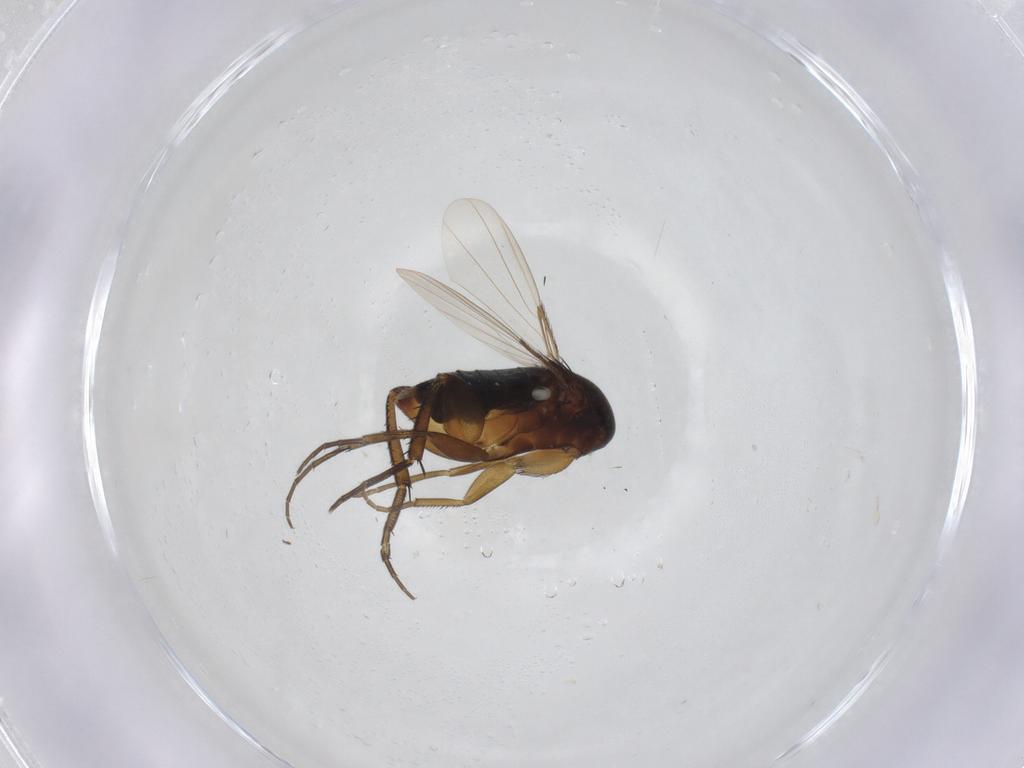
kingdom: Animalia
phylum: Arthropoda
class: Insecta
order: Diptera
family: Phoridae
